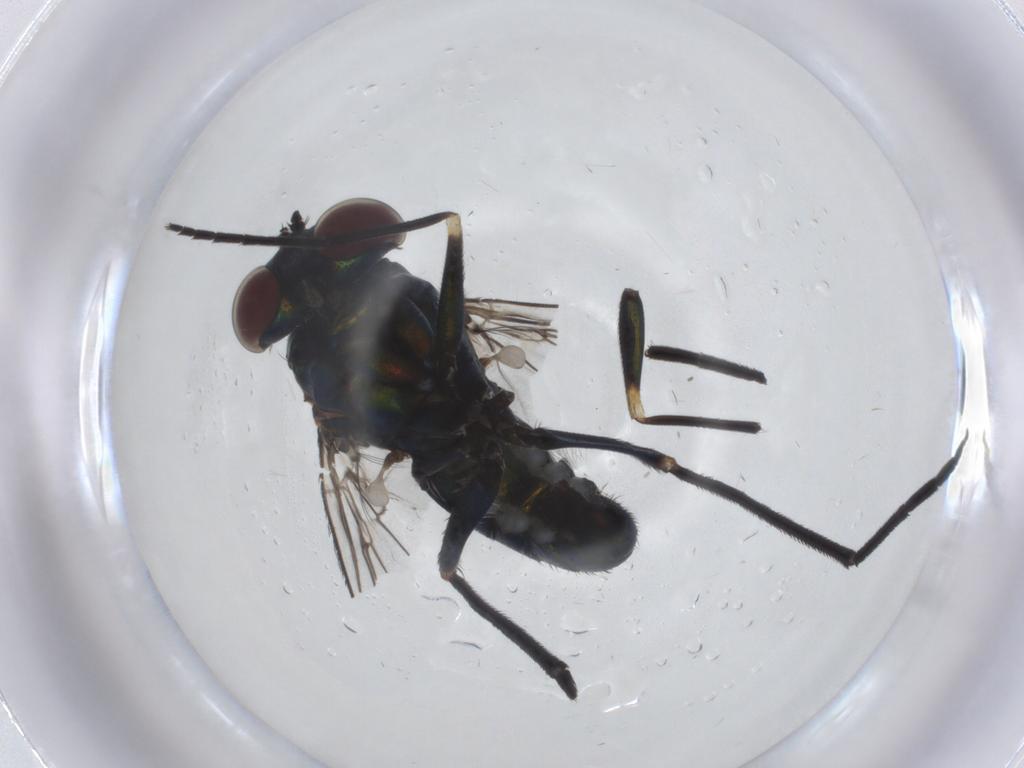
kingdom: Animalia
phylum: Arthropoda
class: Insecta
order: Diptera
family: Dolichopodidae
